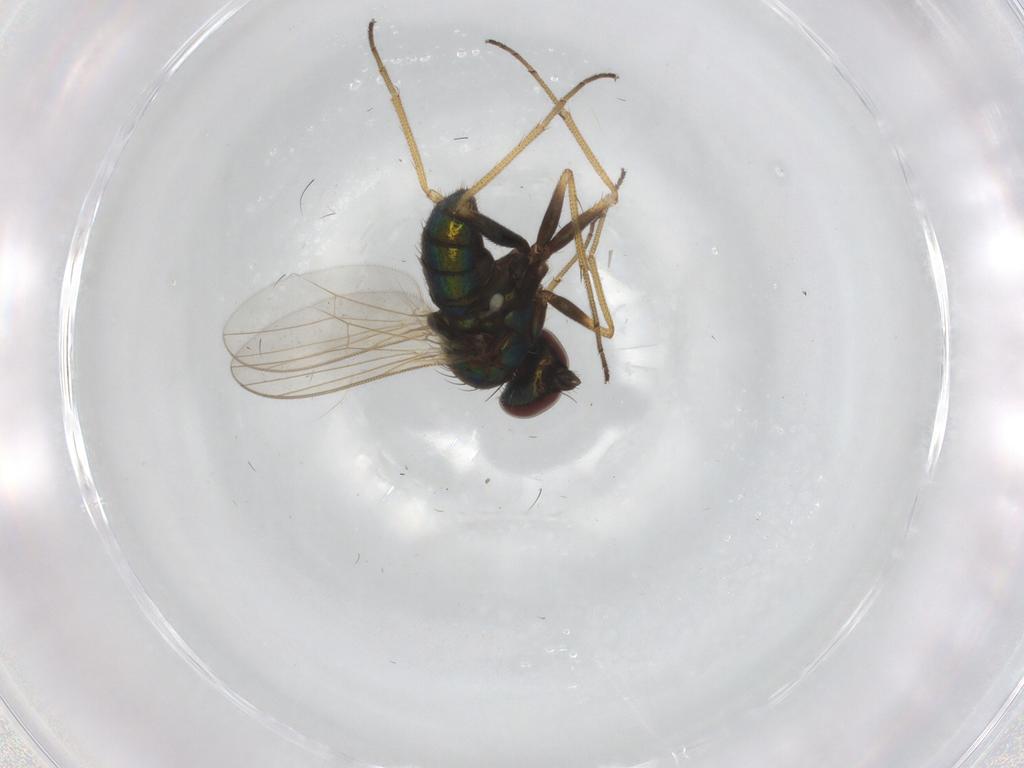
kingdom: Animalia
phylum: Arthropoda
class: Insecta
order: Diptera
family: Dolichopodidae
